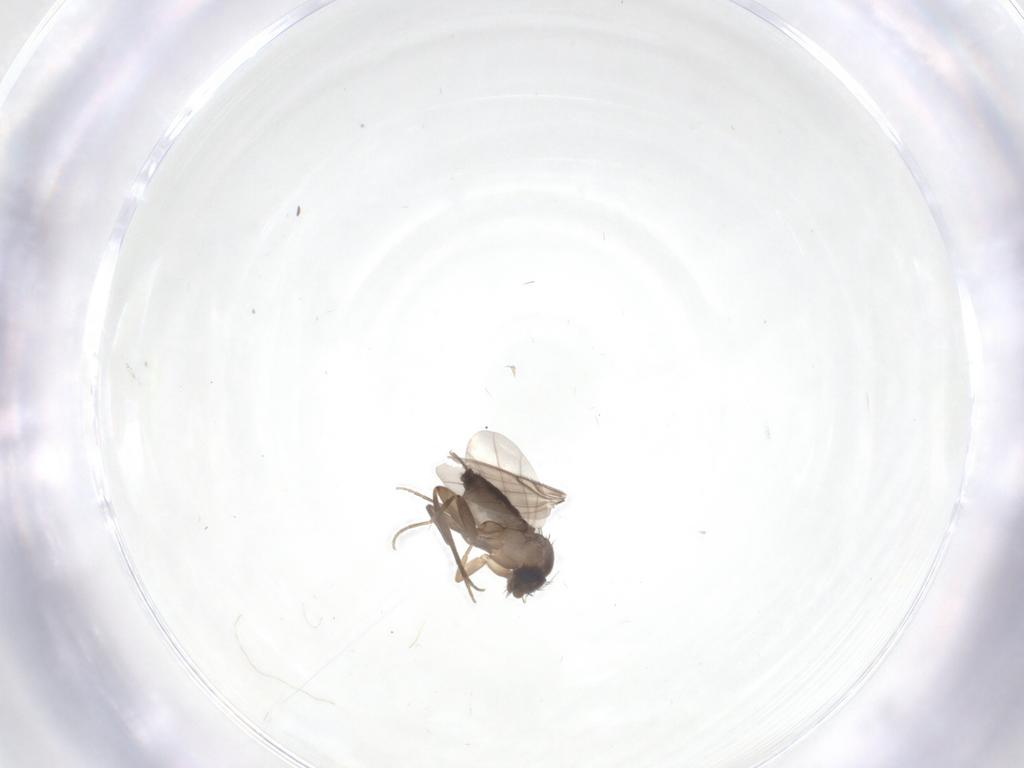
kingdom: Animalia
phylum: Arthropoda
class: Insecta
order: Diptera
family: Phoridae
